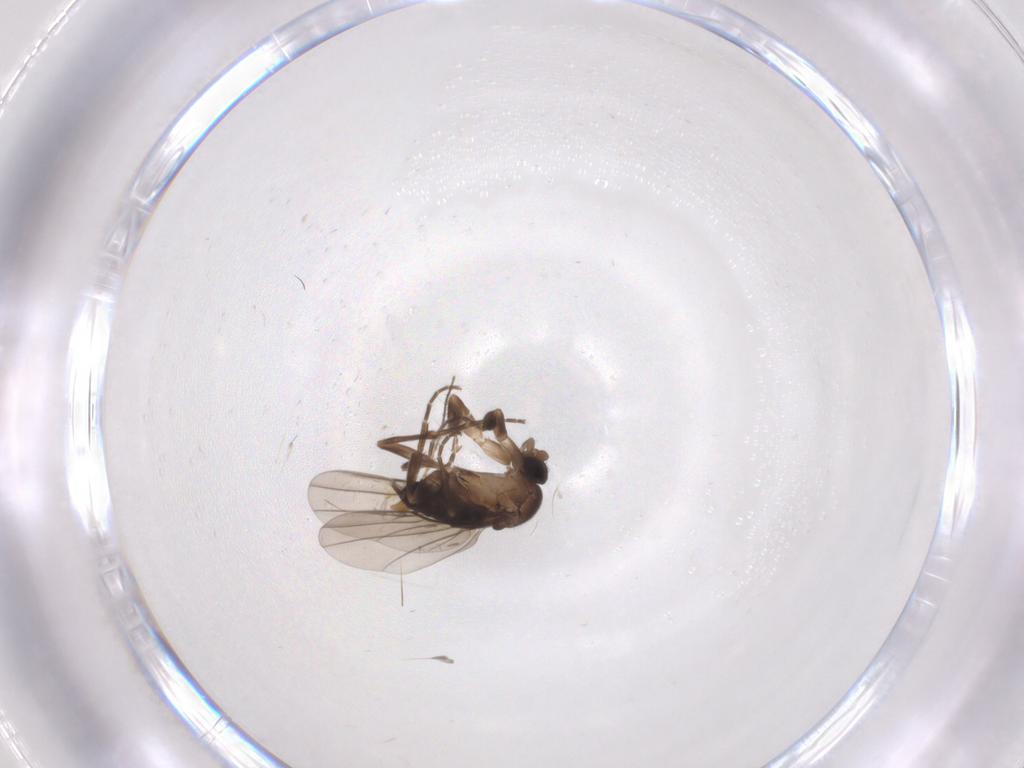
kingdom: Animalia
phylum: Arthropoda
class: Insecta
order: Diptera
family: Limoniidae
